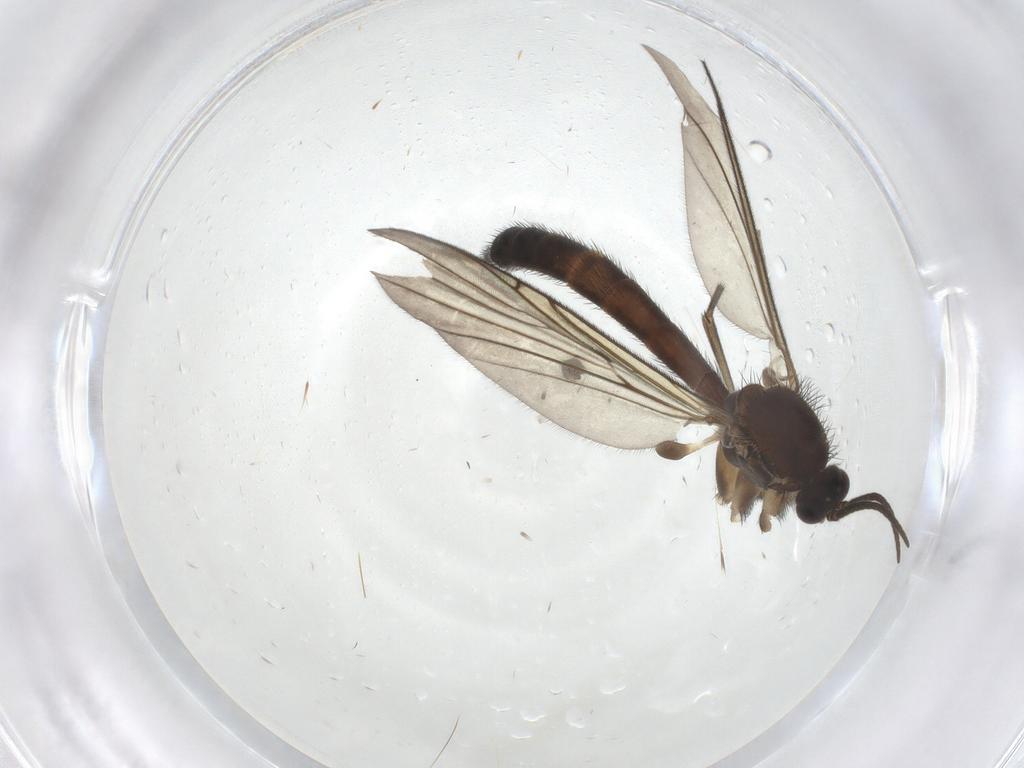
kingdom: Animalia
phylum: Arthropoda
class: Insecta
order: Diptera
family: Keroplatidae
